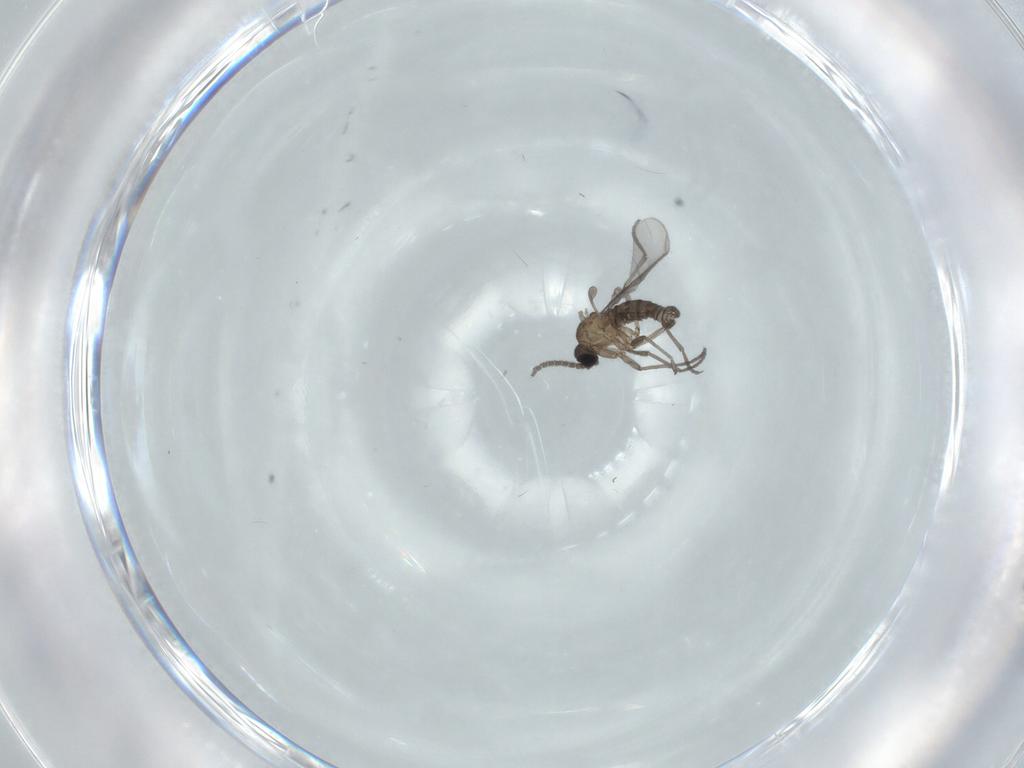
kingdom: Animalia
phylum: Arthropoda
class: Insecta
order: Diptera
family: Sciaridae
